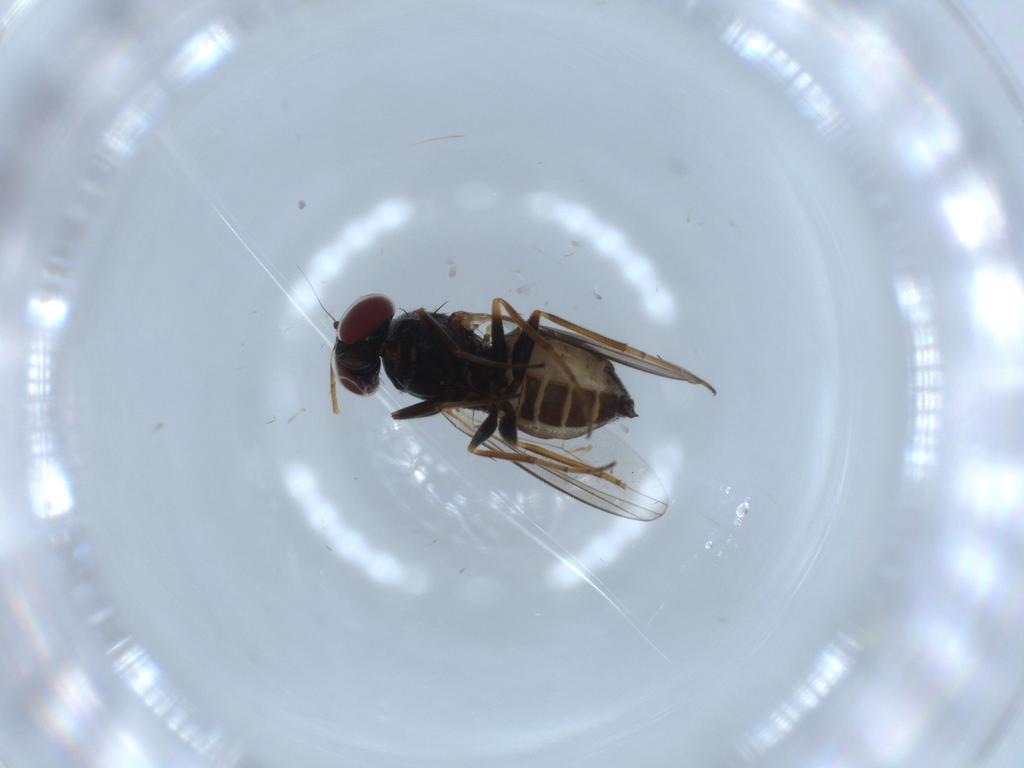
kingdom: Animalia
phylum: Arthropoda
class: Insecta
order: Diptera
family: Dolichopodidae
